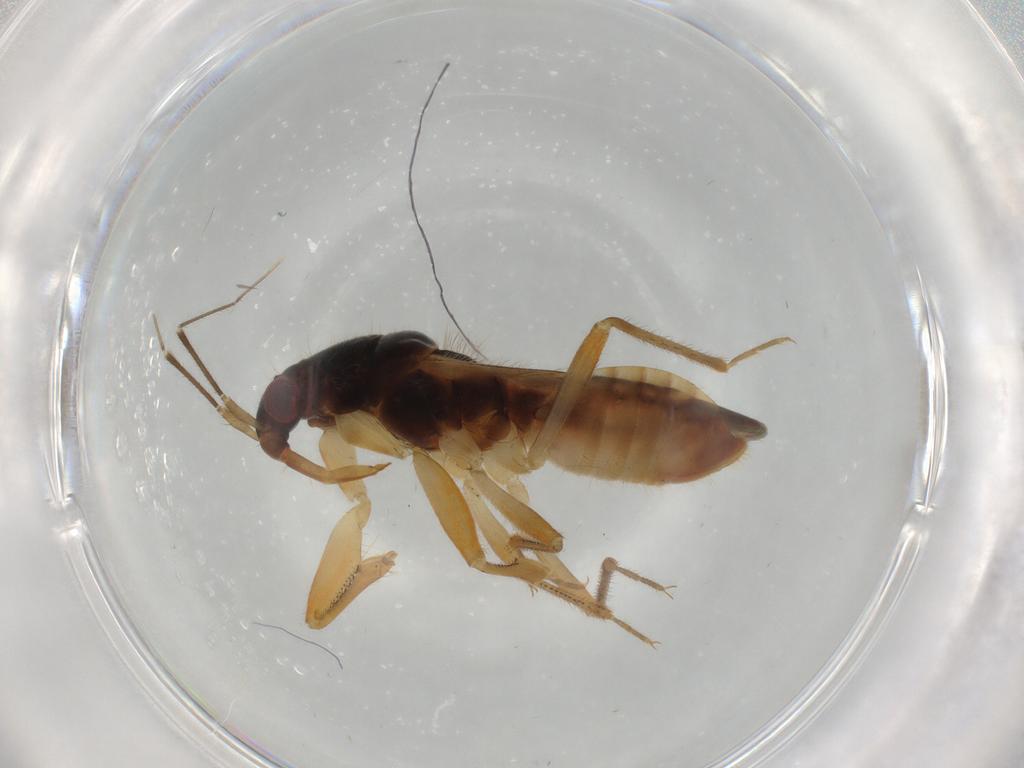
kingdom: Animalia
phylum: Arthropoda
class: Insecta
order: Hemiptera
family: Nabidae
